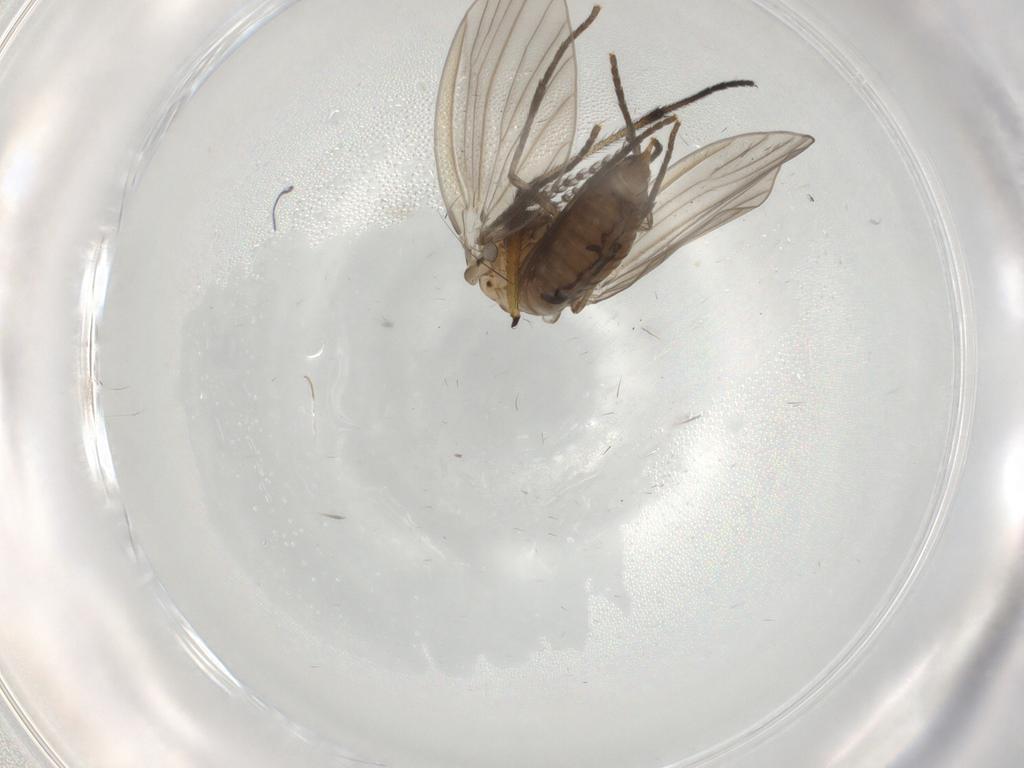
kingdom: Animalia
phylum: Arthropoda
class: Insecta
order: Diptera
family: Psychodidae
